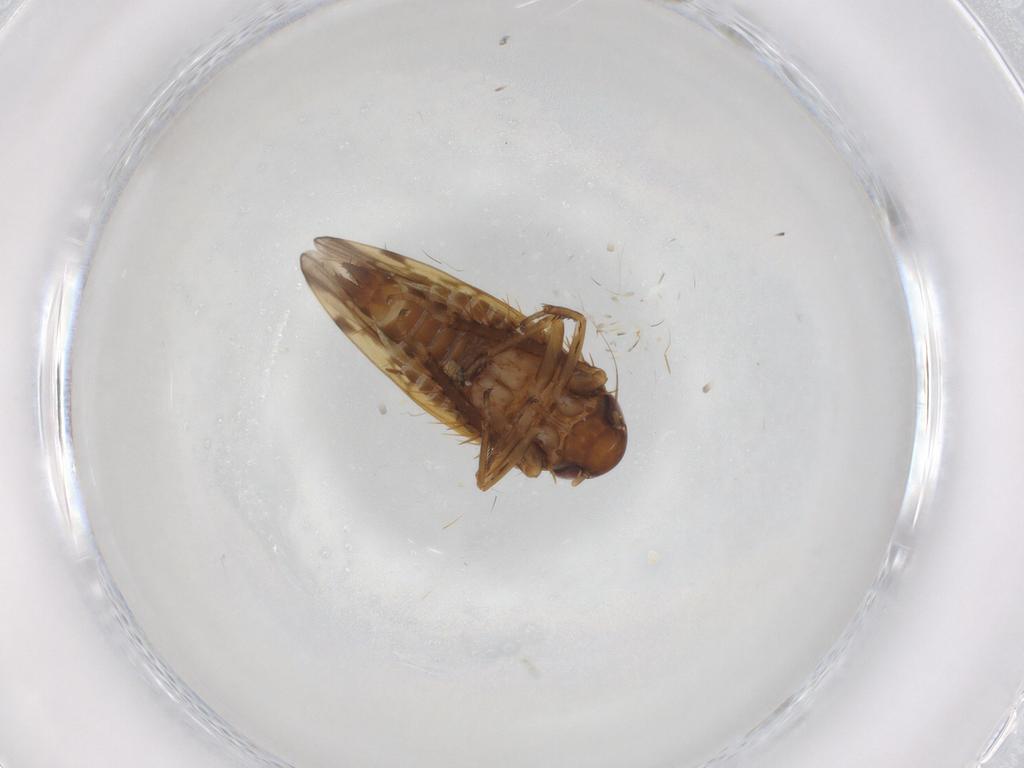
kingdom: Animalia
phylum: Arthropoda
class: Insecta
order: Hemiptera
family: Cicadellidae
